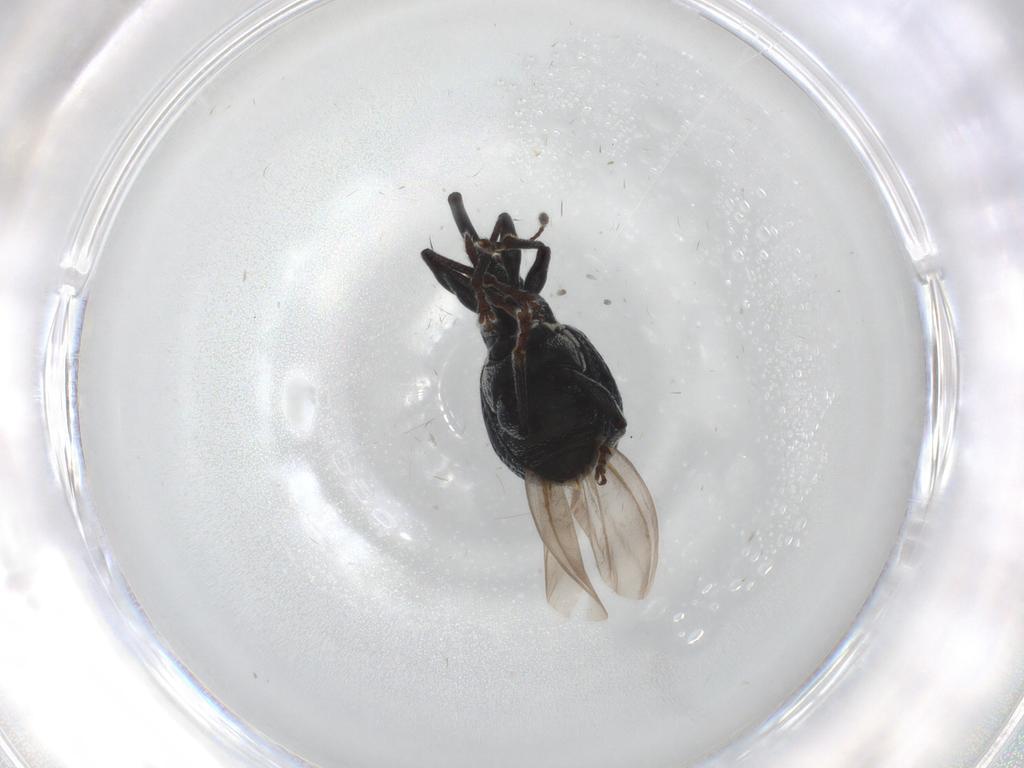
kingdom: Animalia
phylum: Arthropoda
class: Insecta
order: Coleoptera
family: Brentidae
